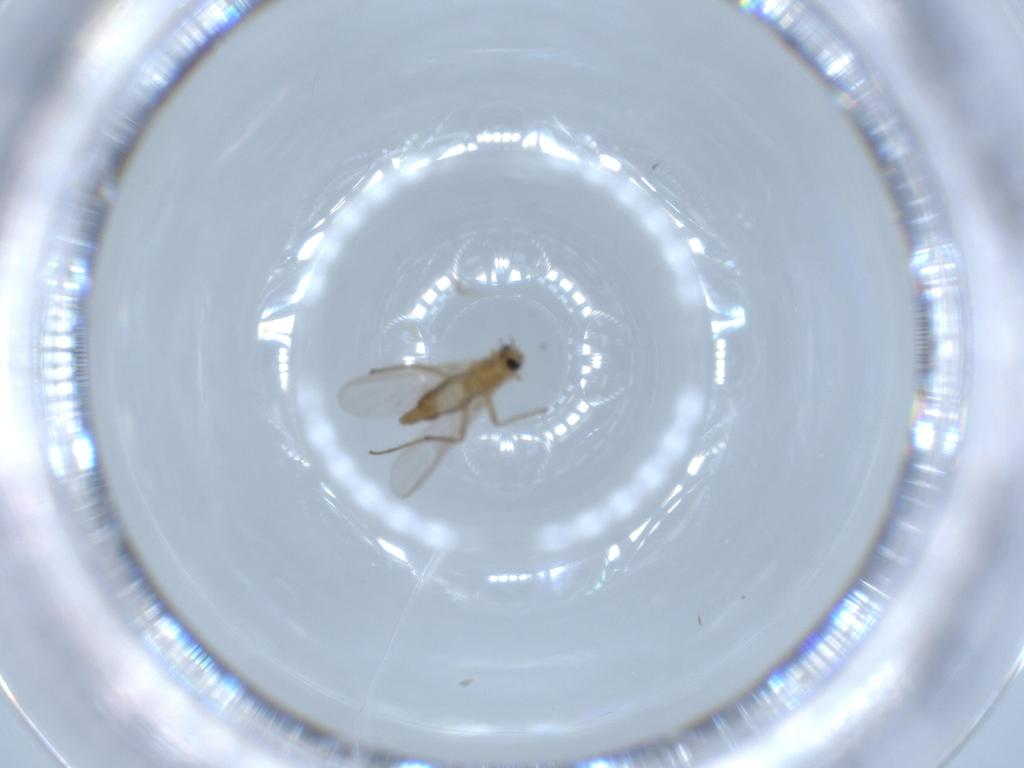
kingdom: Animalia
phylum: Arthropoda
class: Insecta
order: Diptera
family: Chironomidae
